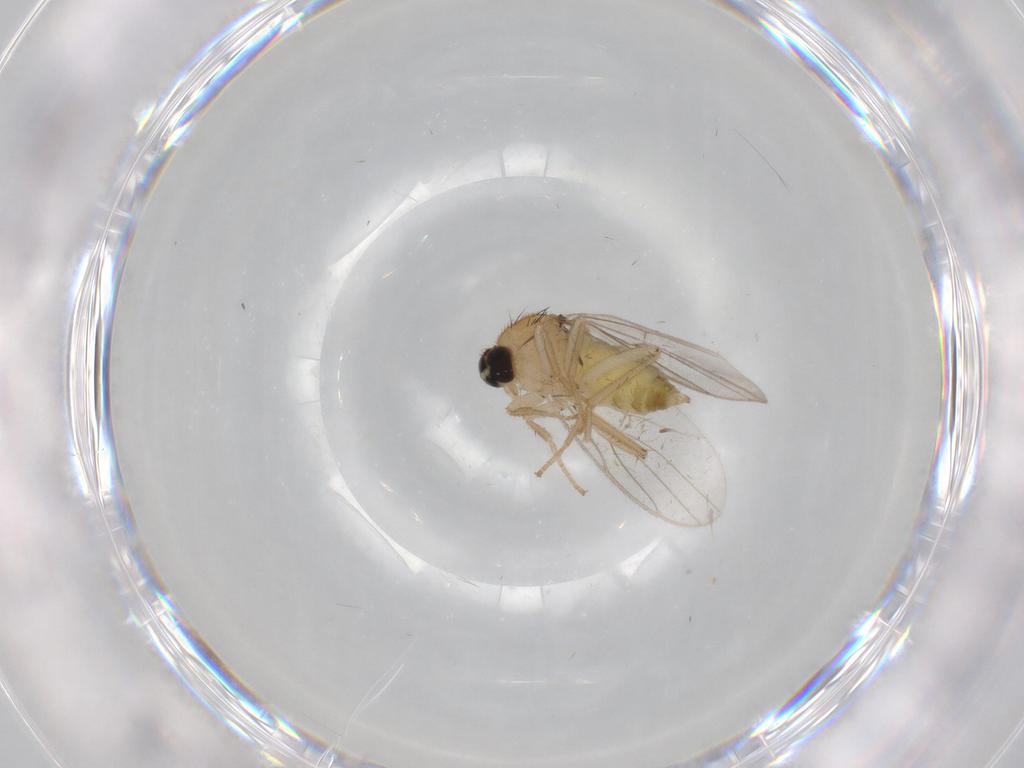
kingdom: Animalia
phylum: Arthropoda
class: Insecta
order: Diptera
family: Hybotidae
